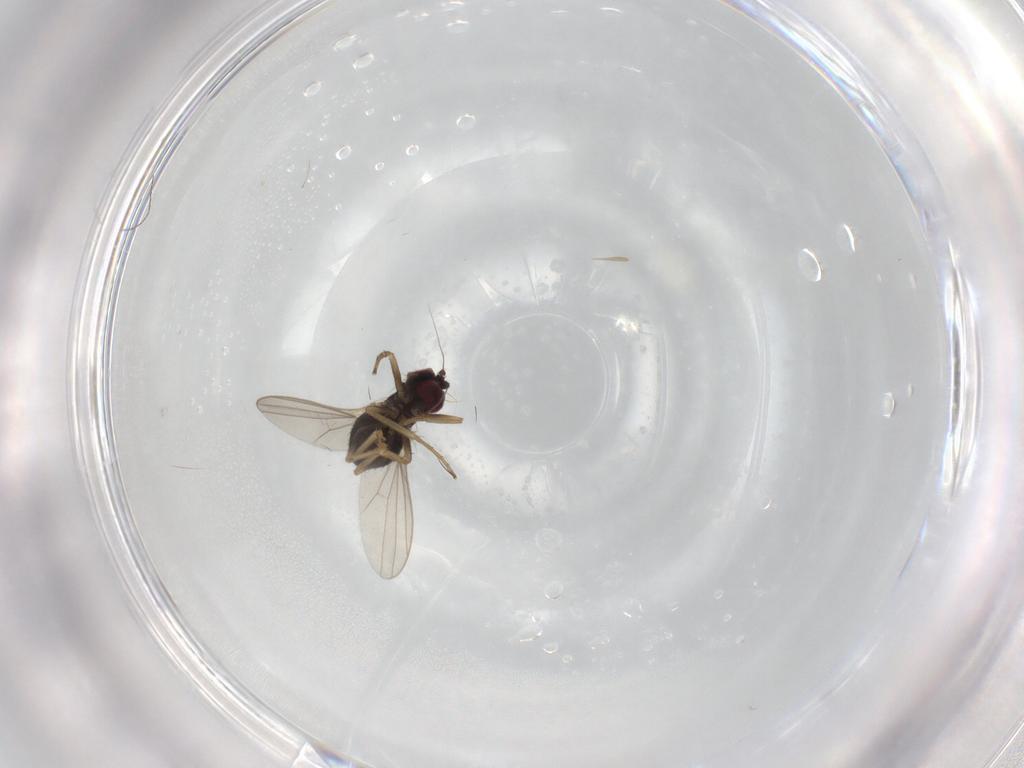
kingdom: Animalia
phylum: Arthropoda
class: Insecta
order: Diptera
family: Dolichopodidae
